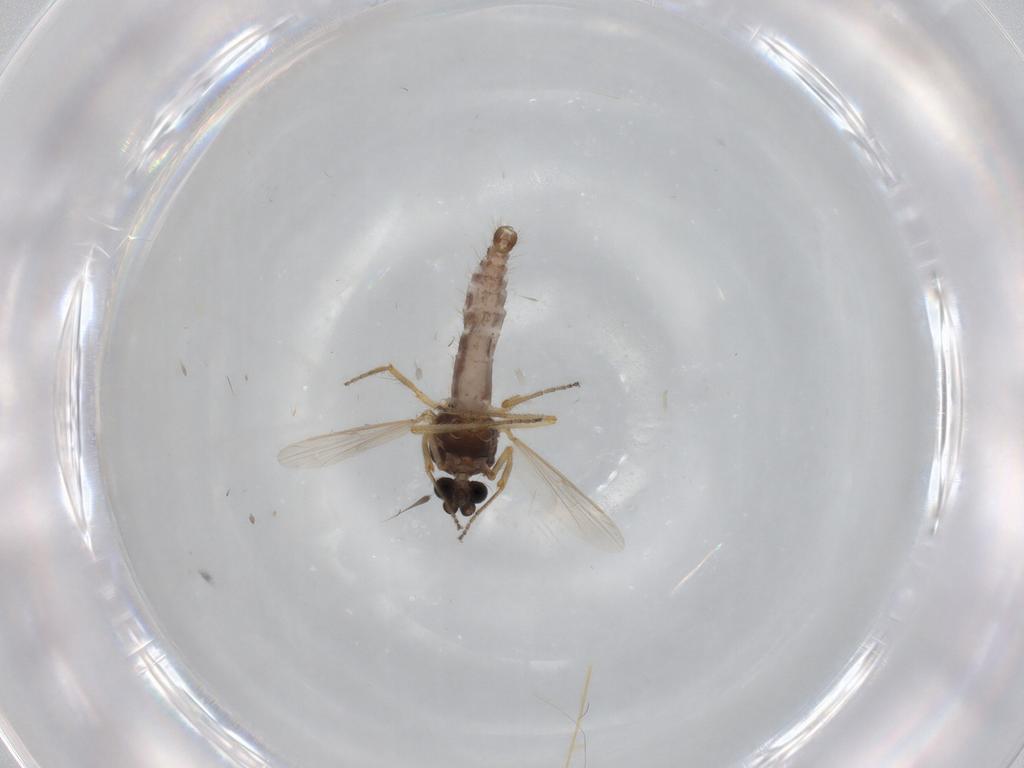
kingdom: Animalia
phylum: Arthropoda
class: Insecta
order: Diptera
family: Ceratopogonidae
